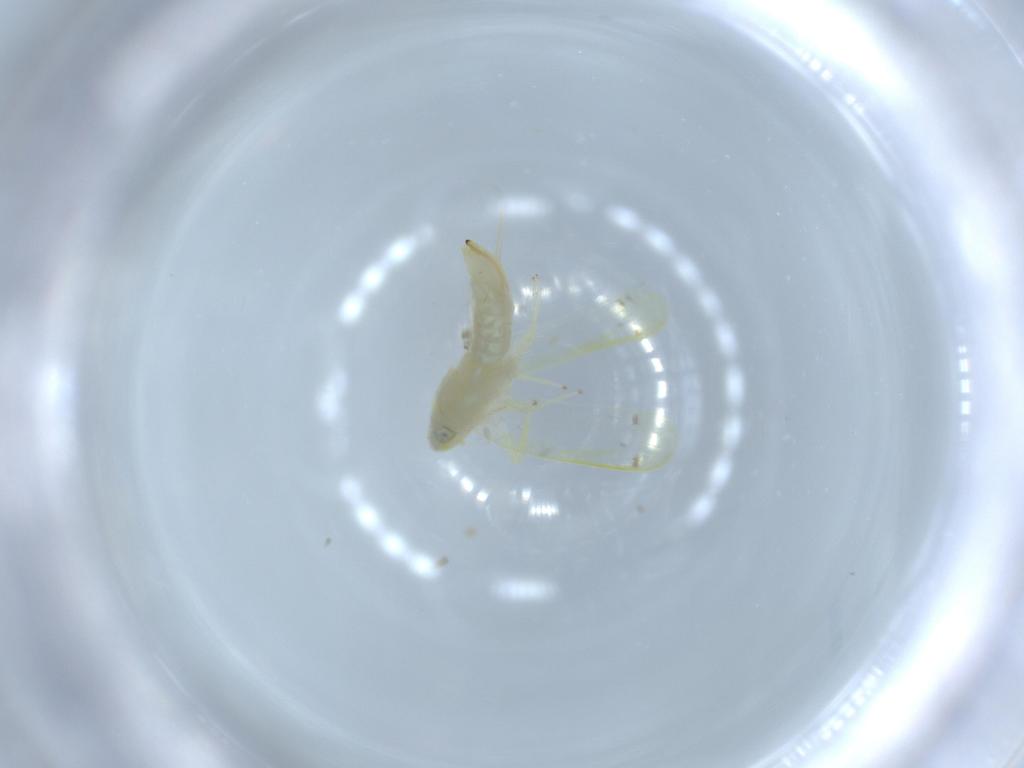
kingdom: Animalia
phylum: Arthropoda
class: Insecta
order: Hemiptera
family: Cicadellidae
